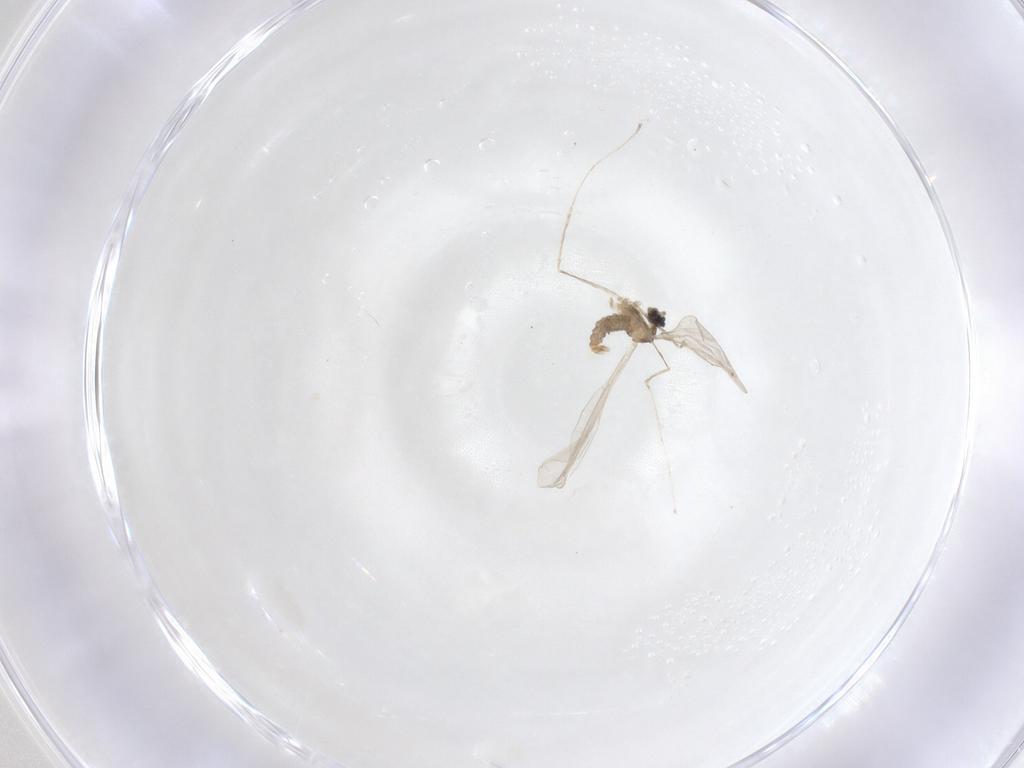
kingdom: Animalia
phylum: Arthropoda
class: Insecta
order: Diptera
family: Cecidomyiidae
